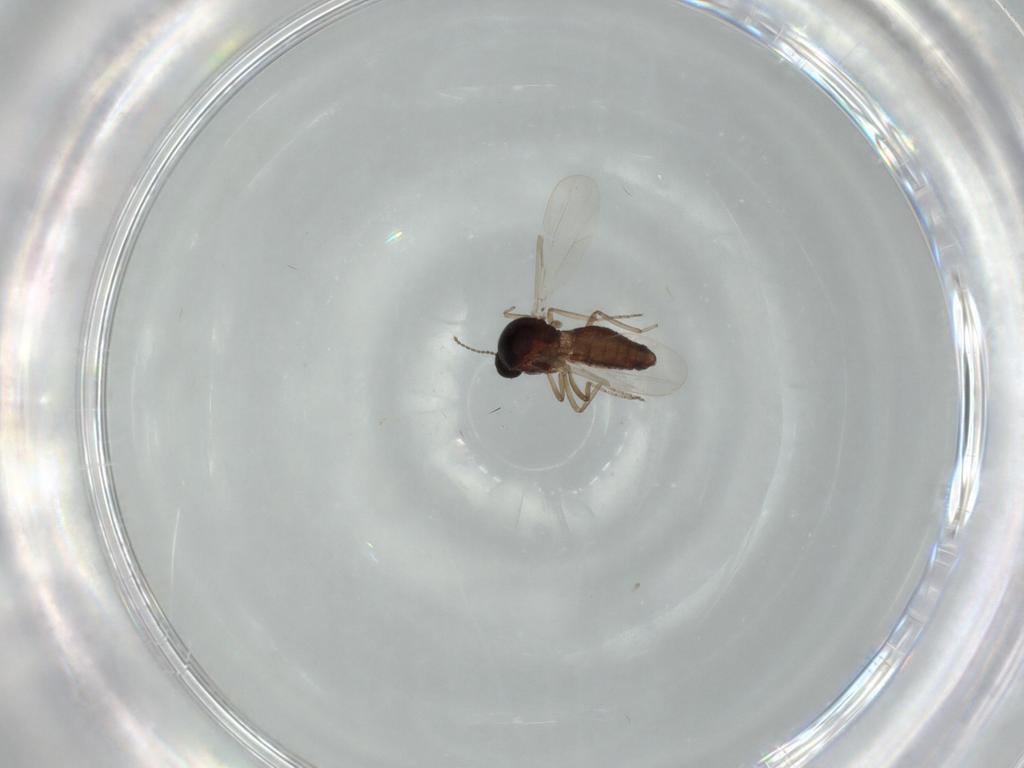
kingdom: Animalia
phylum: Arthropoda
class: Insecta
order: Diptera
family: Ceratopogonidae
